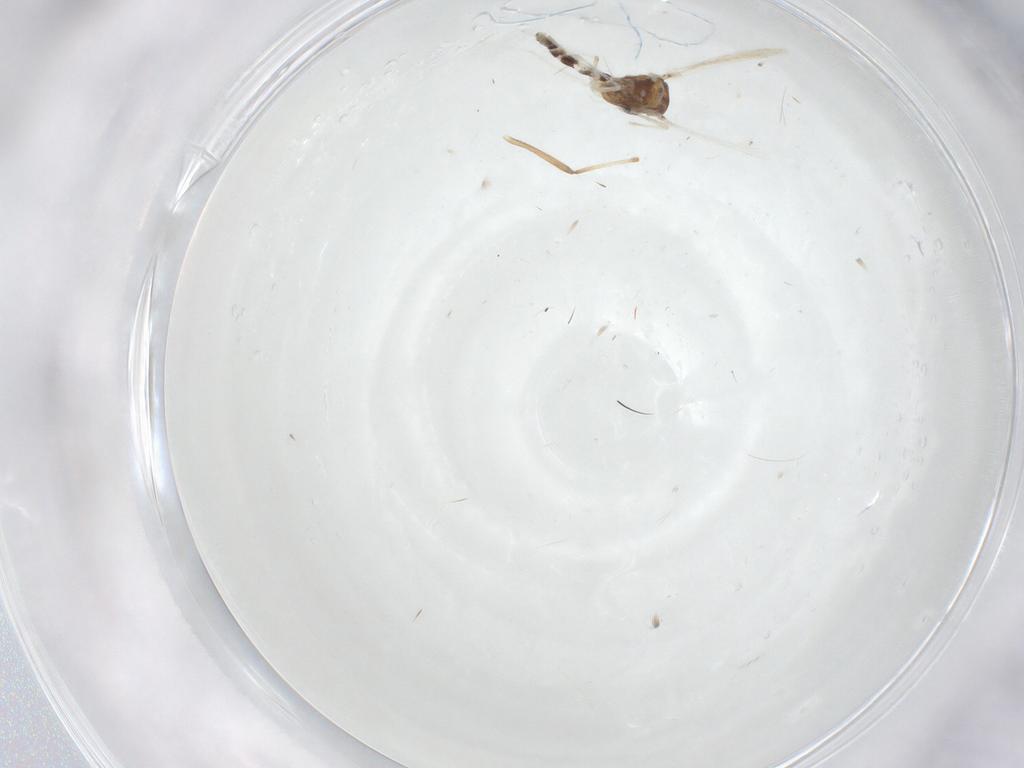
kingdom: Animalia
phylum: Arthropoda
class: Insecta
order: Diptera
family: Chironomidae
